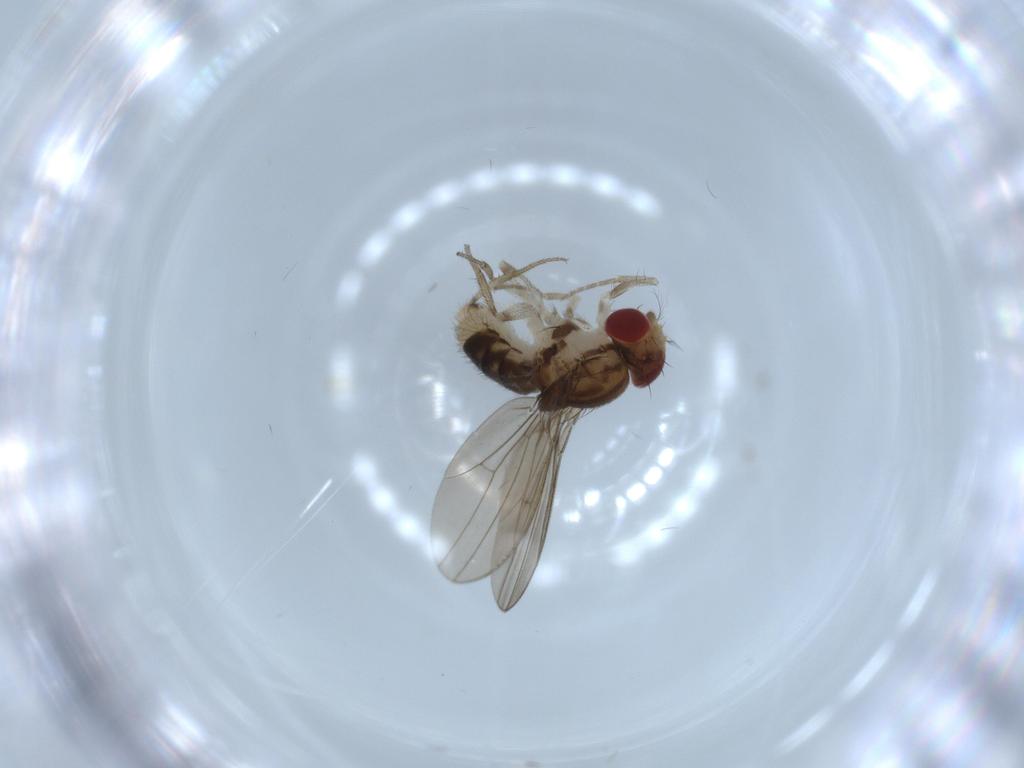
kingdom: Animalia
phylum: Arthropoda
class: Insecta
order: Diptera
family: Drosophilidae
